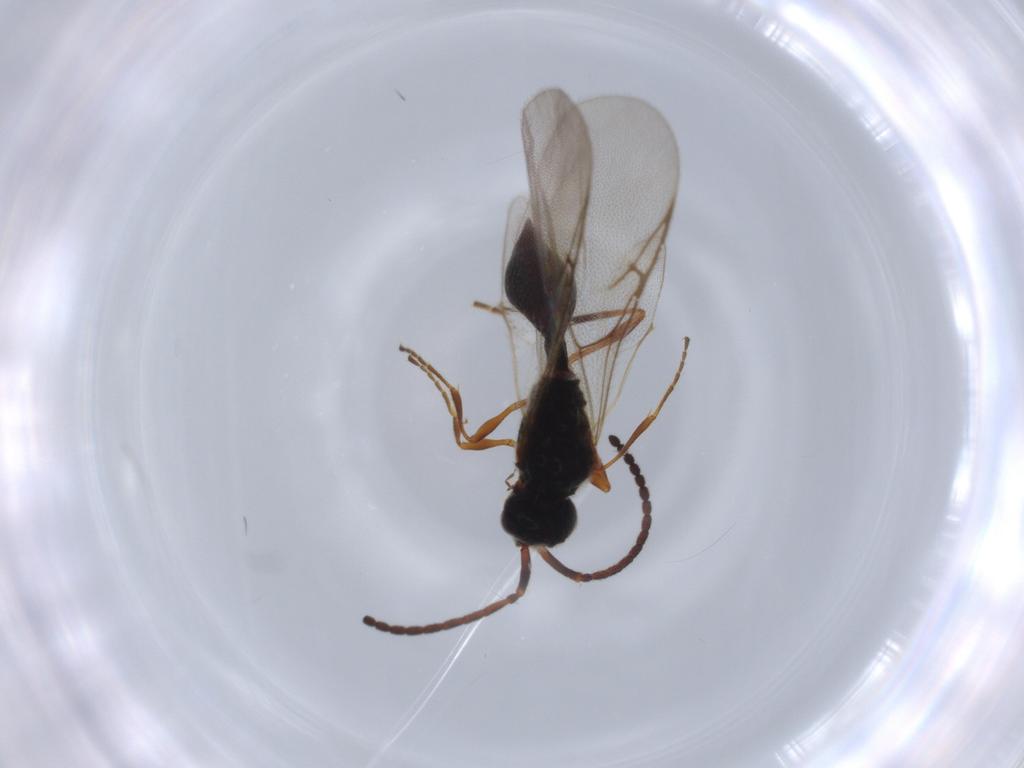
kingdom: Animalia
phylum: Arthropoda
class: Insecta
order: Hymenoptera
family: Diapriidae
